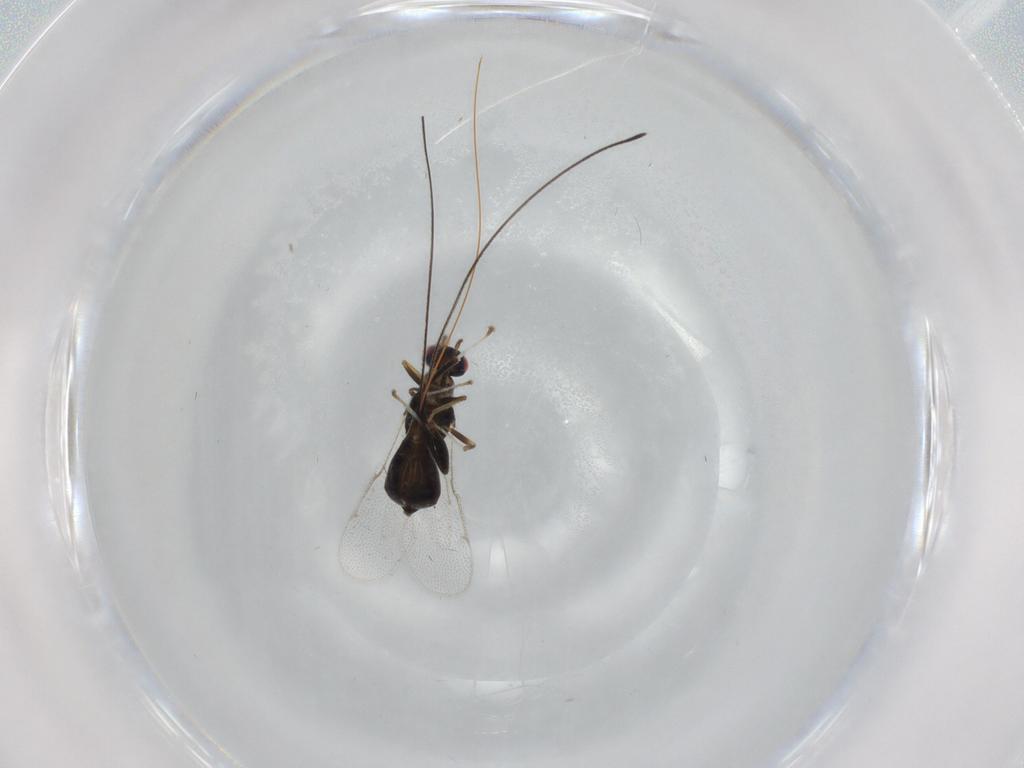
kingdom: Animalia
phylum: Arthropoda
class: Insecta
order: Hymenoptera
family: Torymidae
